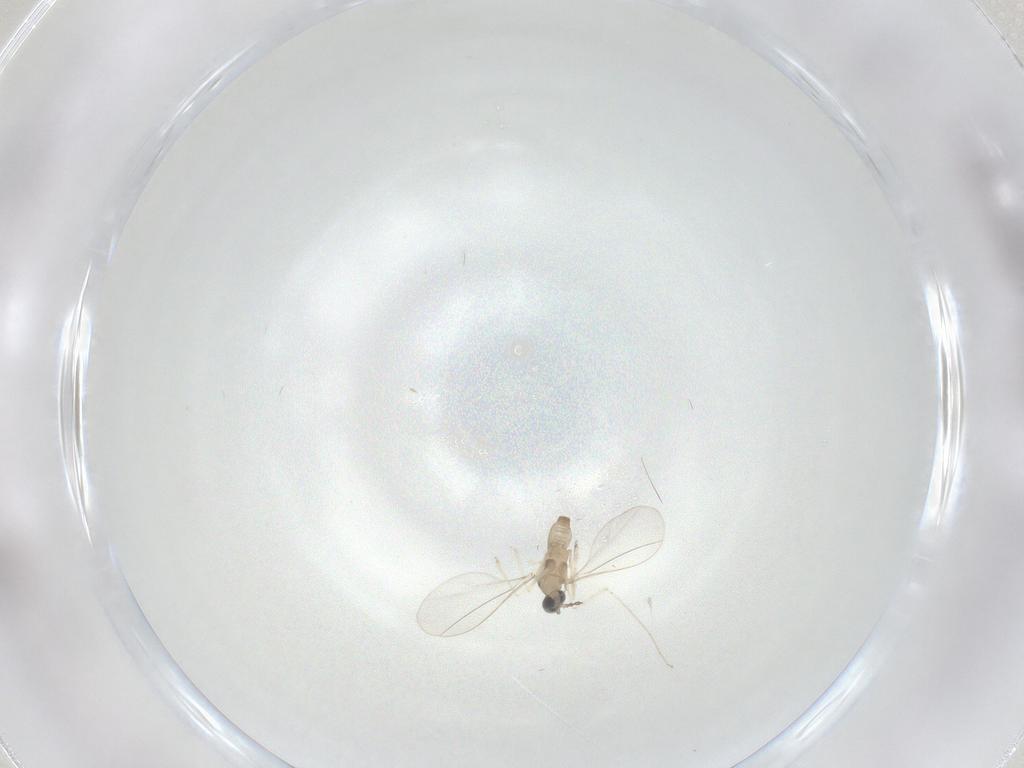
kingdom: Animalia
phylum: Arthropoda
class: Insecta
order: Diptera
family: Cecidomyiidae
